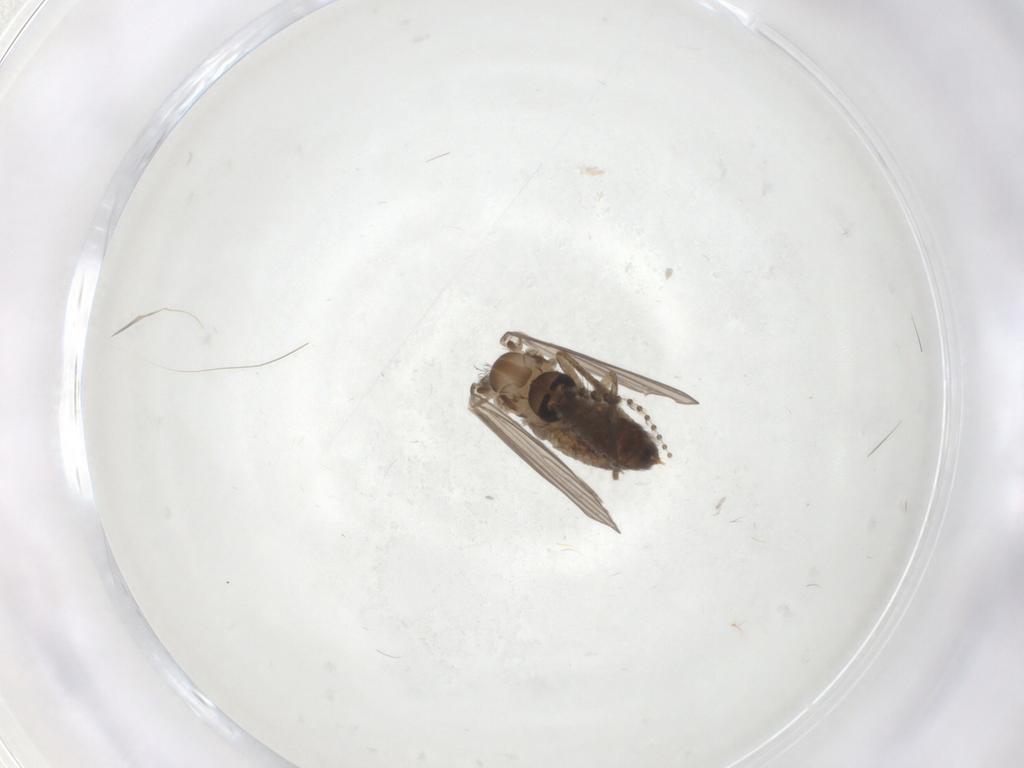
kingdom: Animalia
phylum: Arthropoda
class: Insecta
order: Diptera
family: Psychodidae
